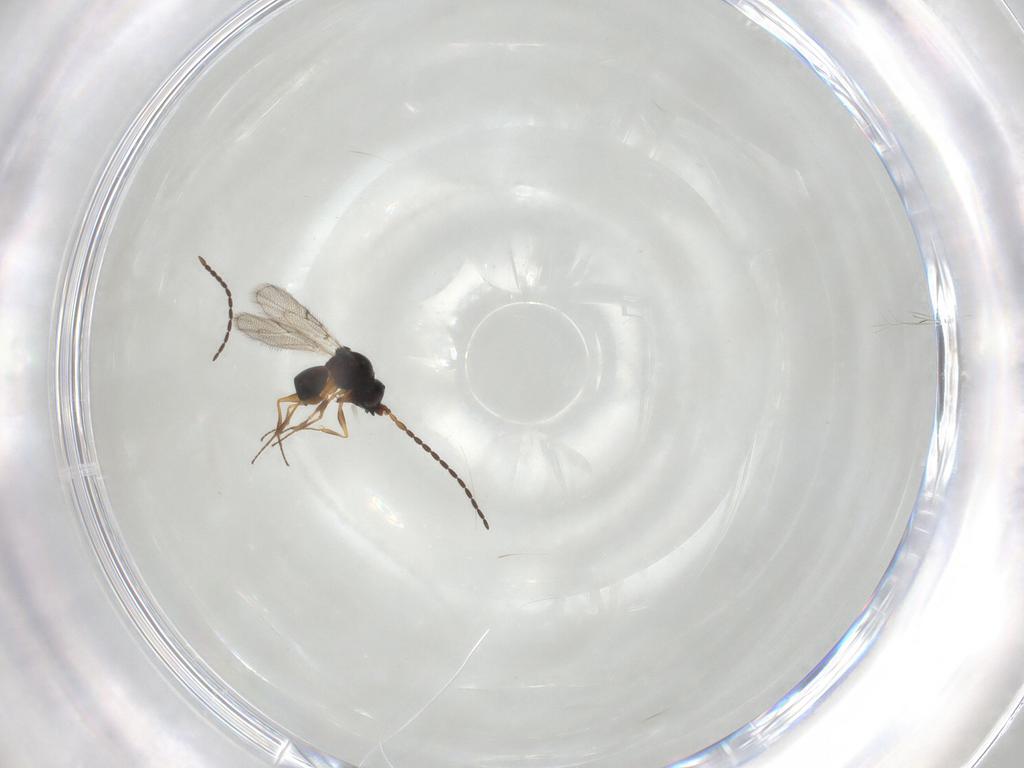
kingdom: Animalia
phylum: Arthropoda
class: Insecta
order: Hymenoptera
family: Figitidae
